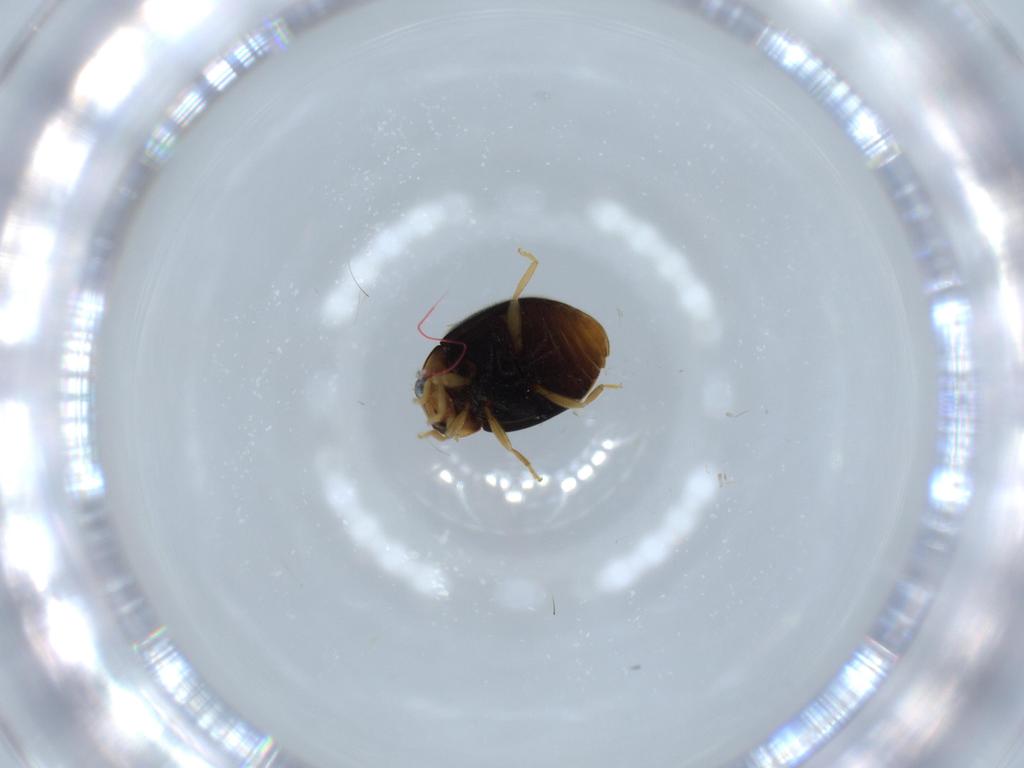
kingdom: Animalia
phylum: Arthropoda
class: Insecta
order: Coleoptera
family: Coccinellidae
